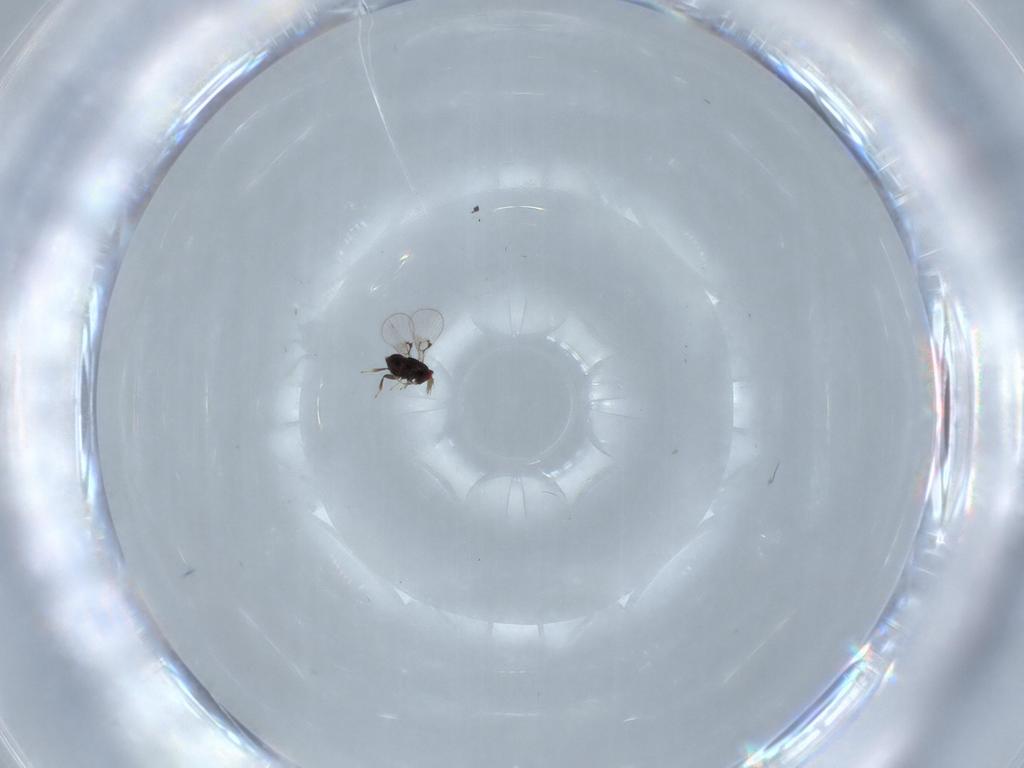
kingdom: Animalia
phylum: Arthropoda
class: Insecta
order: Hymenoptera
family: Trichogrammatidae
